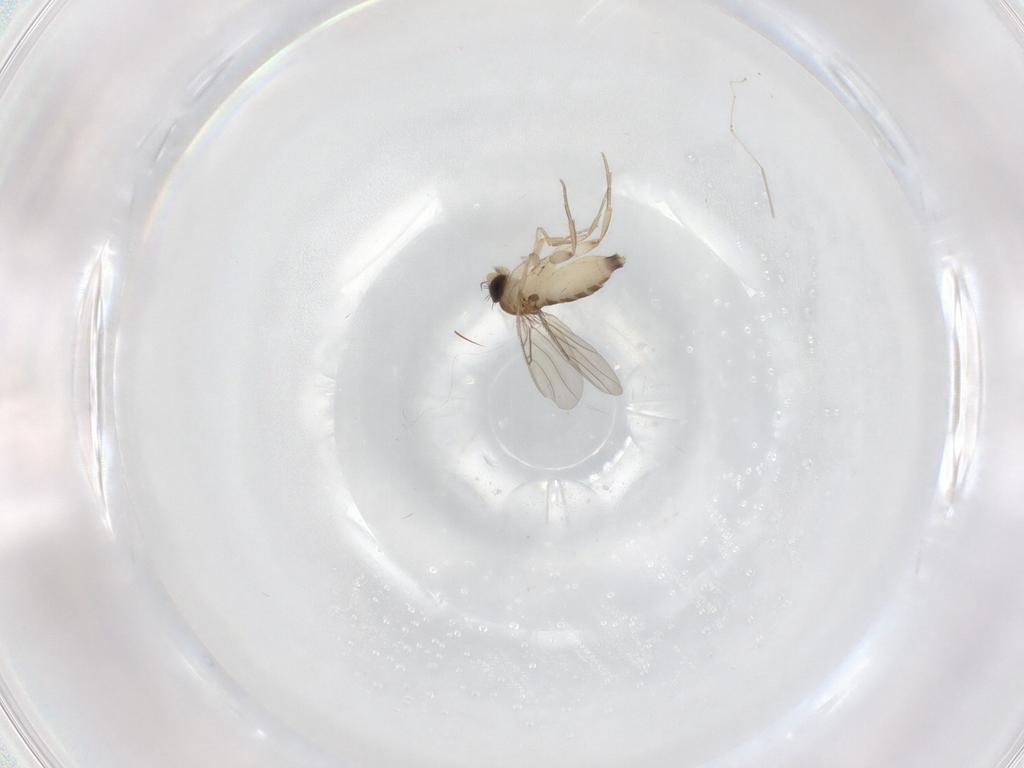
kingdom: Animalia
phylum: Arthropoda
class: Insecta
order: Diptera
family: Phoridae
